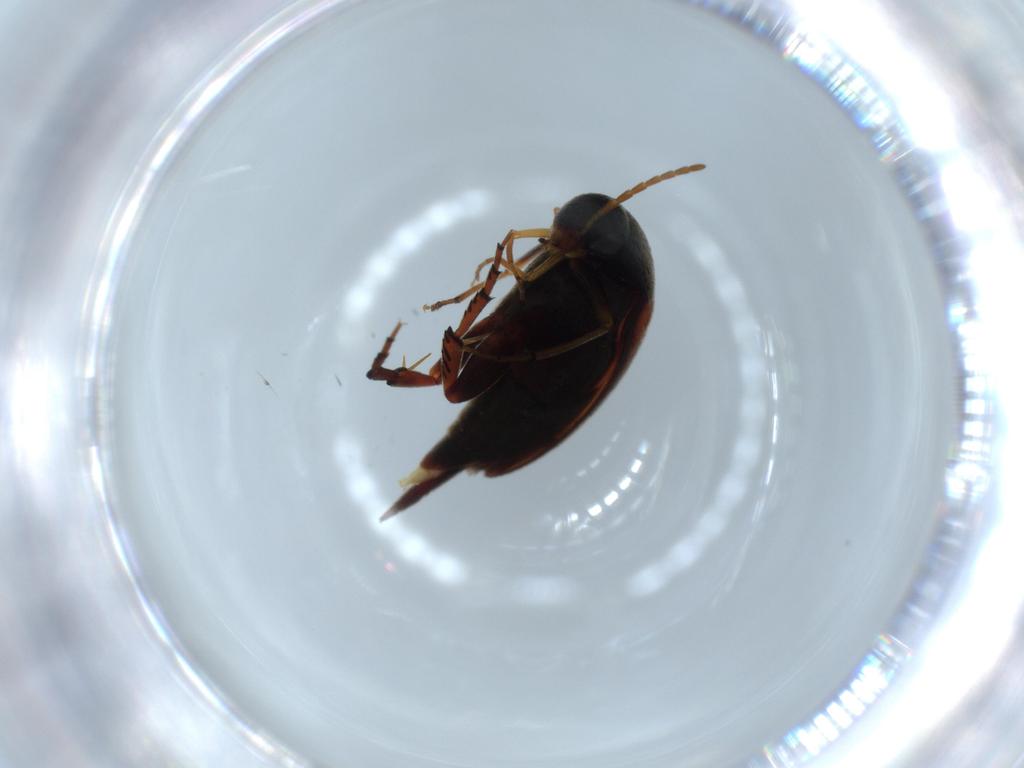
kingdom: Animalia
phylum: Arthropoda
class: Insecta
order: Coleoptera
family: Mordellidae
